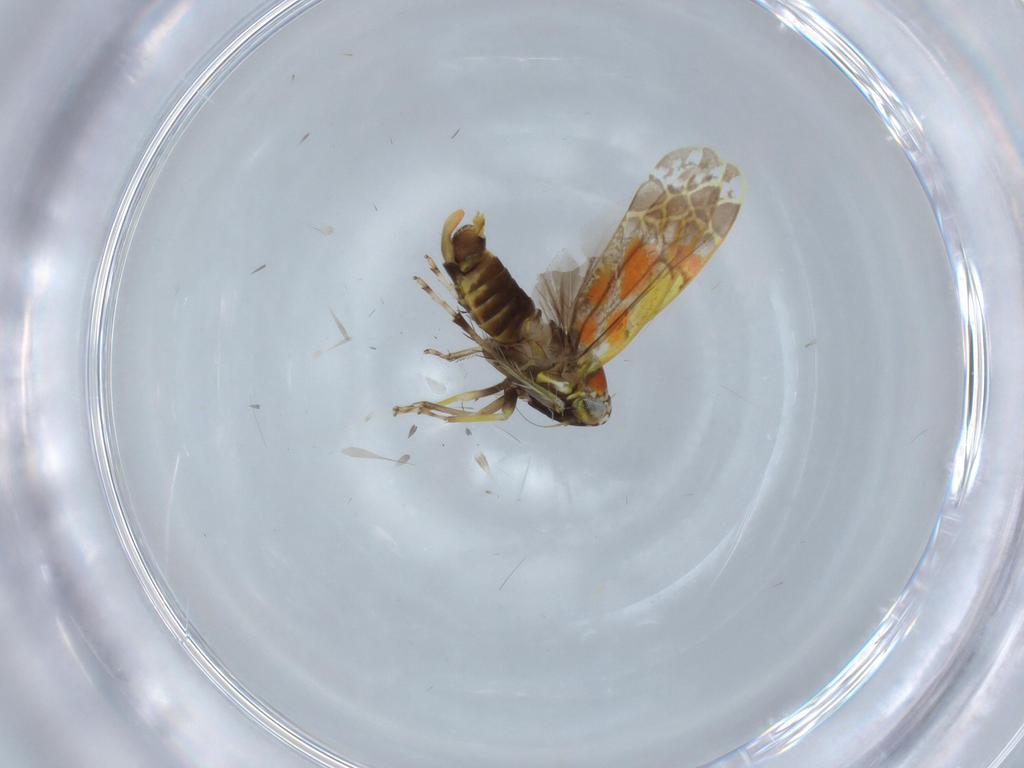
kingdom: Animalia
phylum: Arthropoda
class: Insecta
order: Hemiptera
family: Cicadellidae
